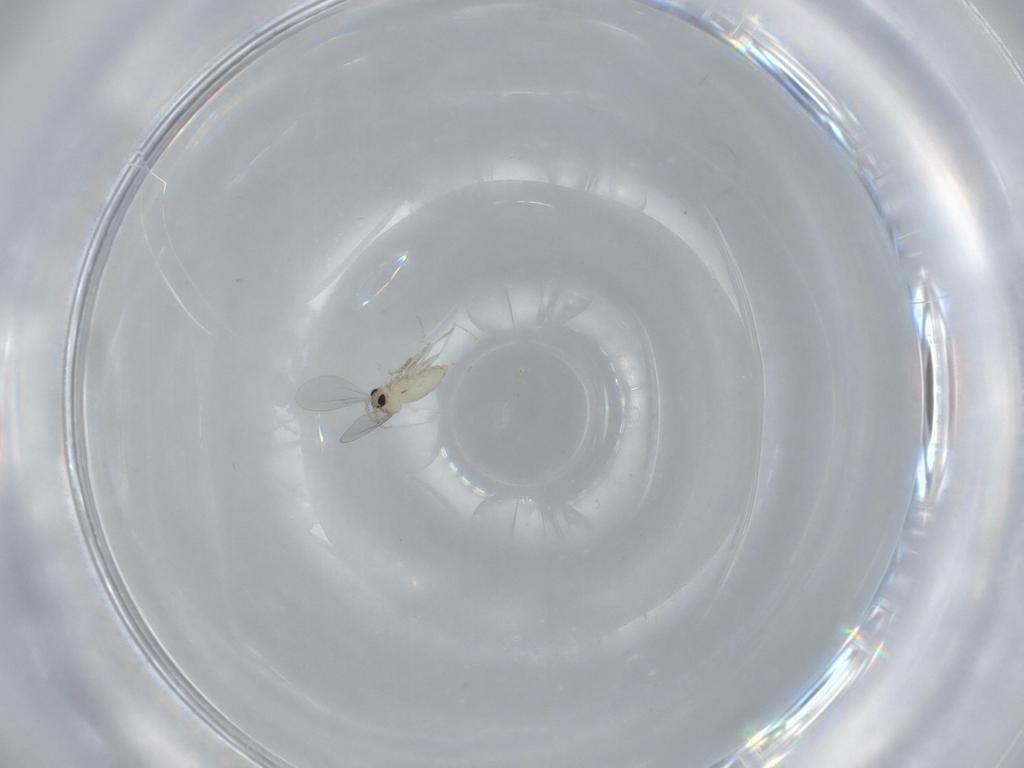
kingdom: Animalia
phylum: Arthropoda
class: Insecta
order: Diptera
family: Cecidomyiidae
